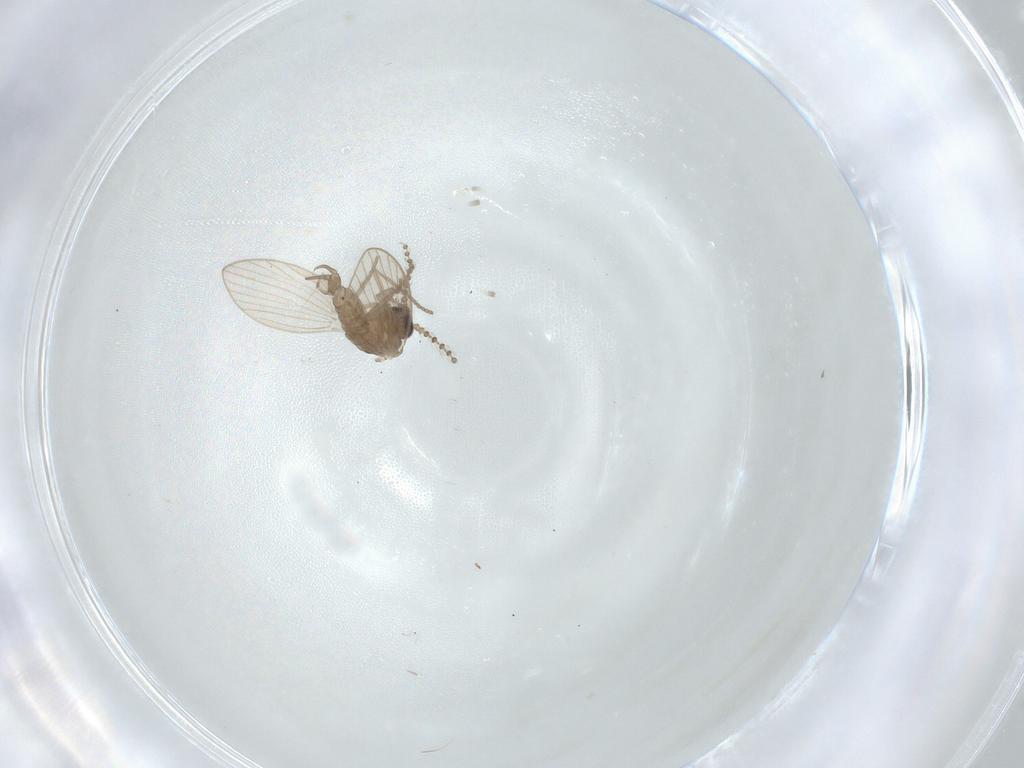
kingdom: Animalia
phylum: Arthropoda
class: Insecta
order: Diptera
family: Psychodidae
